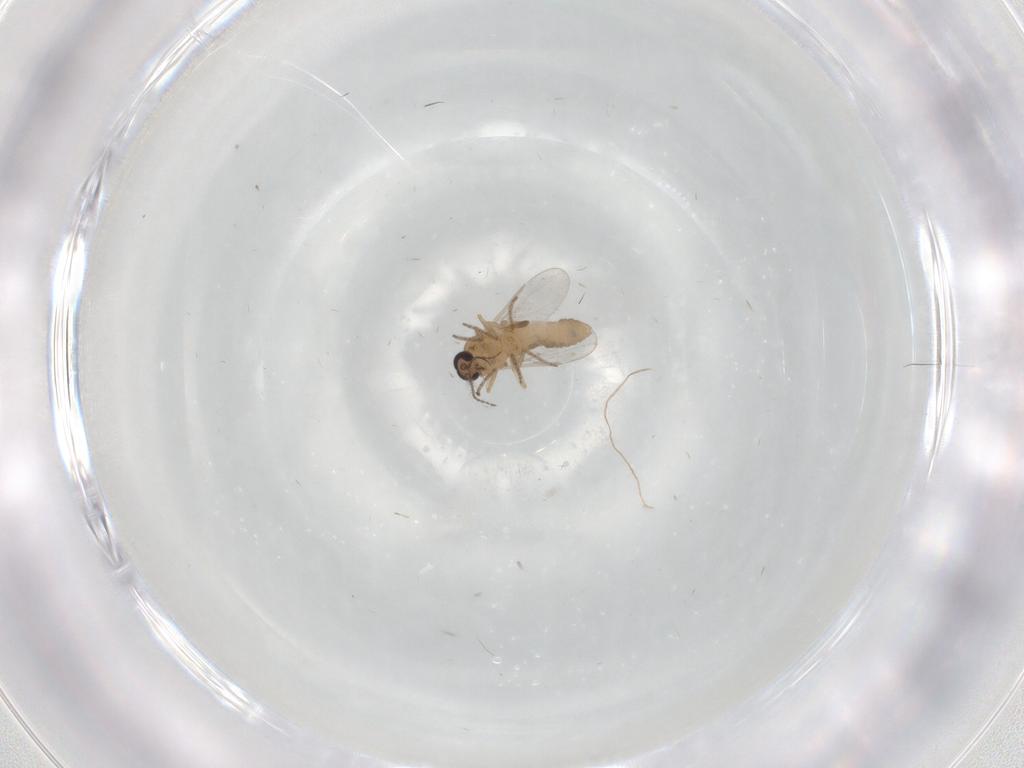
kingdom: Animalia
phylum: Arthropoda
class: Insecta
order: Diptera
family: Ceratopogonidae
